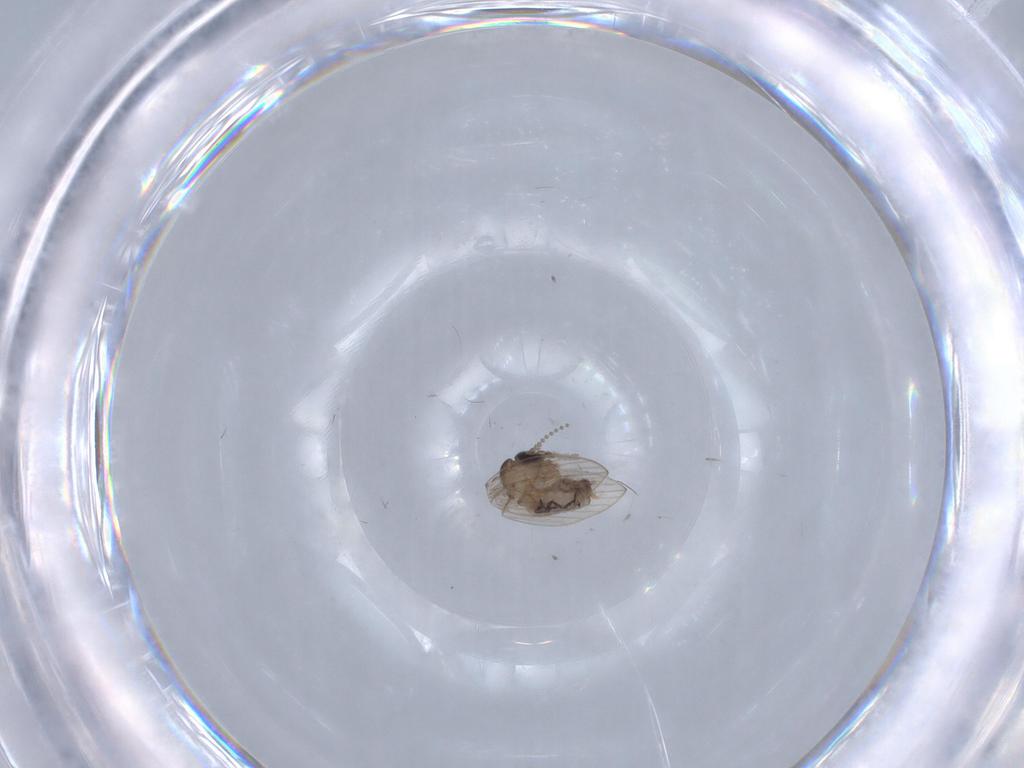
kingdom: Animalia
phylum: Arthropoda
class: Insecta
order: Diptera
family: Psychodidae
